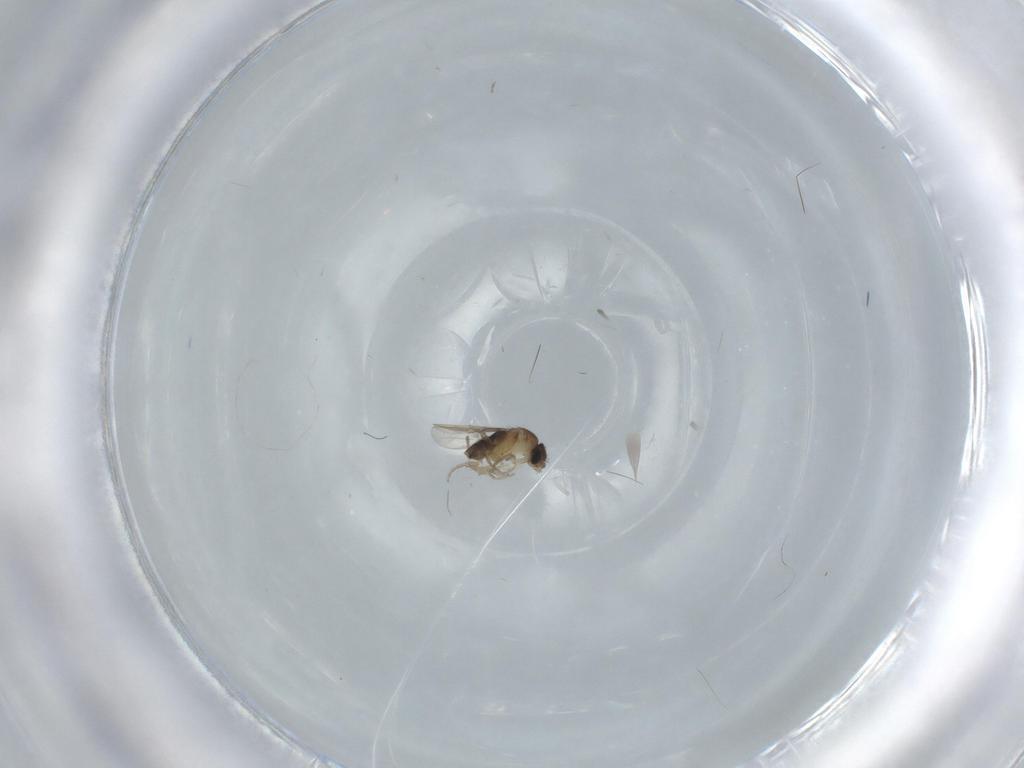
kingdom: Animalia
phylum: Arthropoda
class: Insecta
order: Diptera
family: Phoridae
